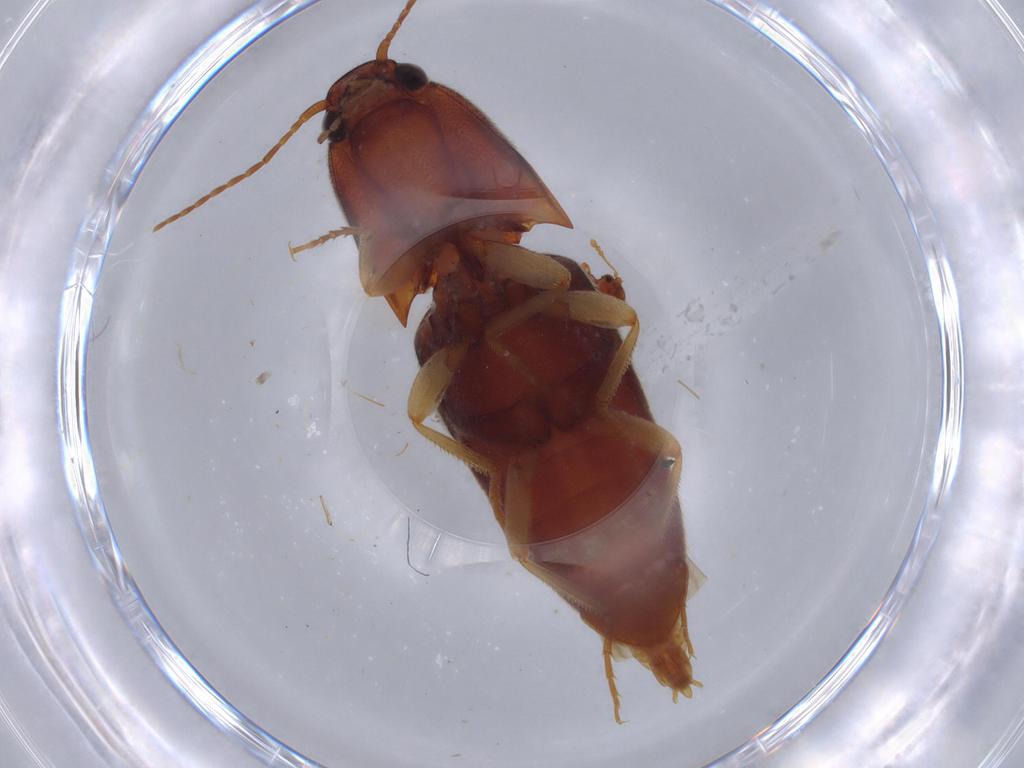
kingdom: Animalia
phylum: Arthropoda
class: Insecta
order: Coleoptera
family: Latridiidae
